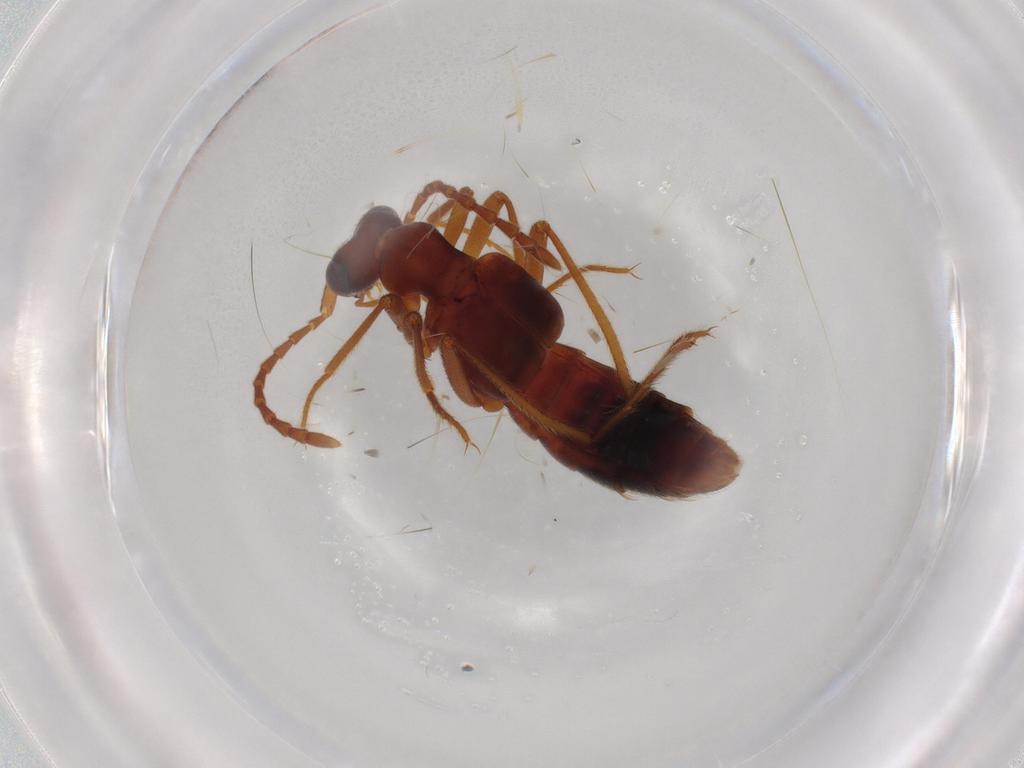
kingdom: Animalia
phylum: Arthropoda
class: Insecta
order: Coleoptera
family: Staphylinidae
